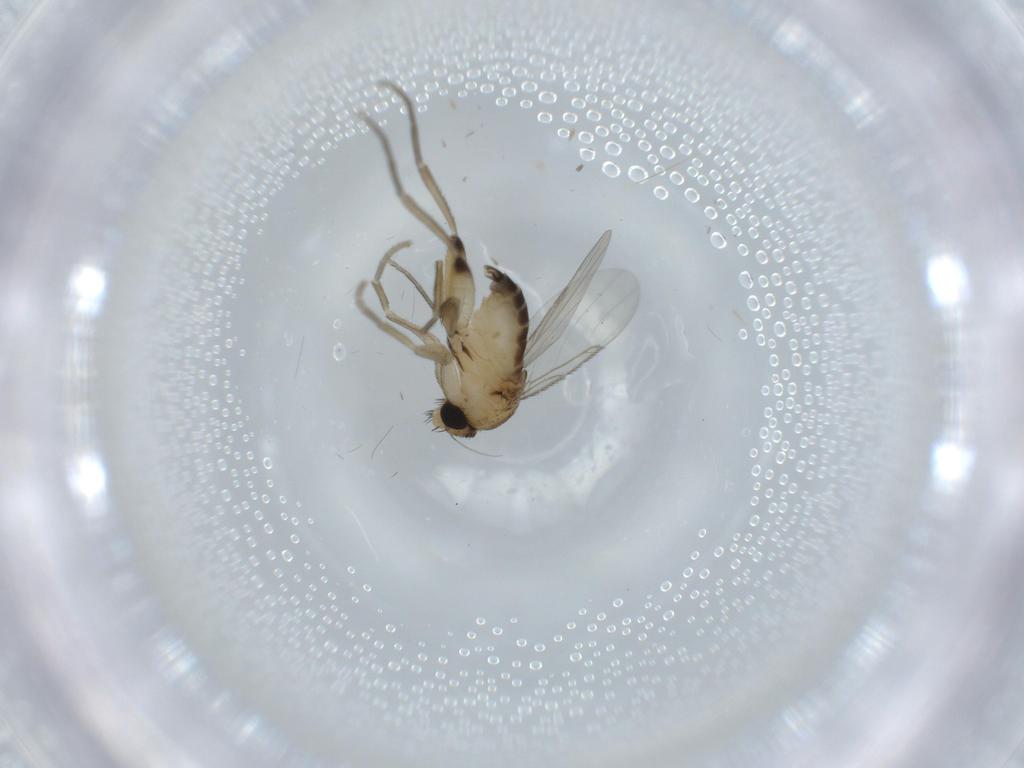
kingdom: Animalia
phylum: Arthropoda
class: Insecta
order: Diptera
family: Phoridae
